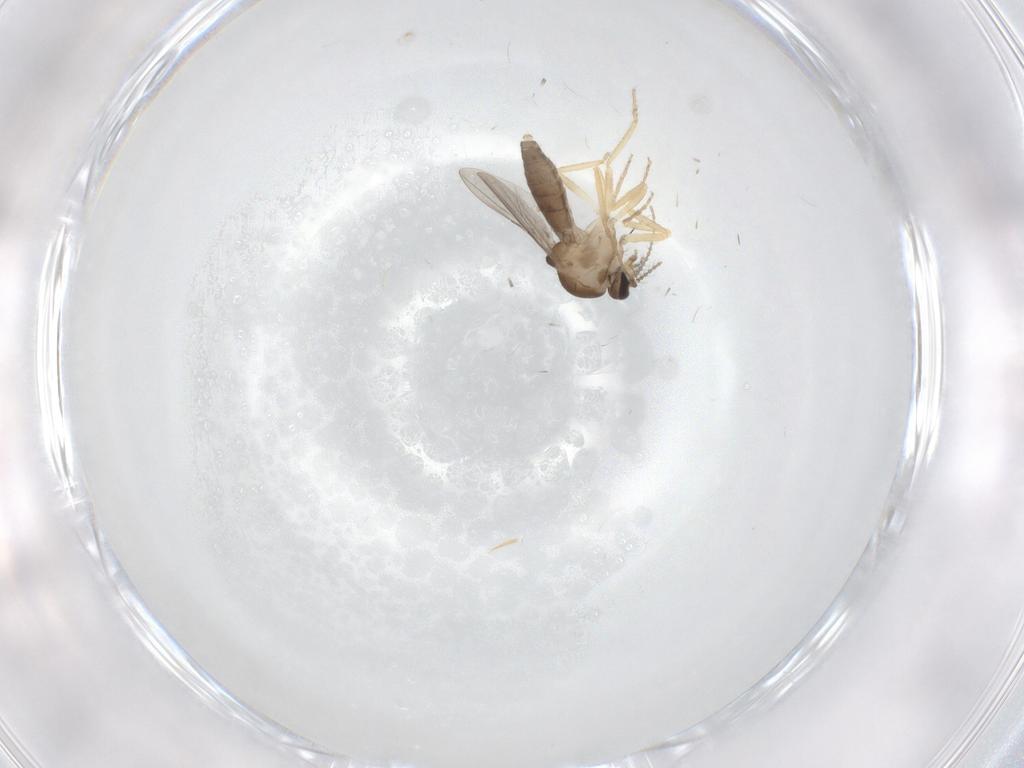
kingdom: Animalia
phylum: Arthropoda
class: Insecta
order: Diptera
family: Ceratopogonidae
